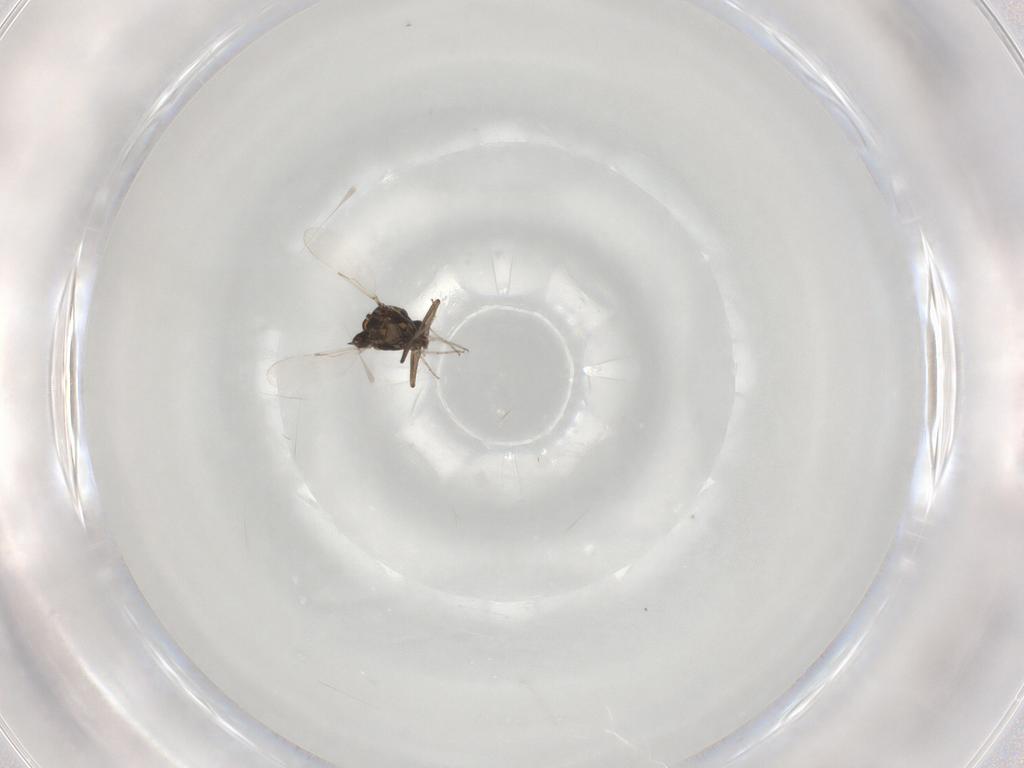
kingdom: Animalia
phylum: Arthropoda
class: Insecta
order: Diptera
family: Ceratopogonidae
